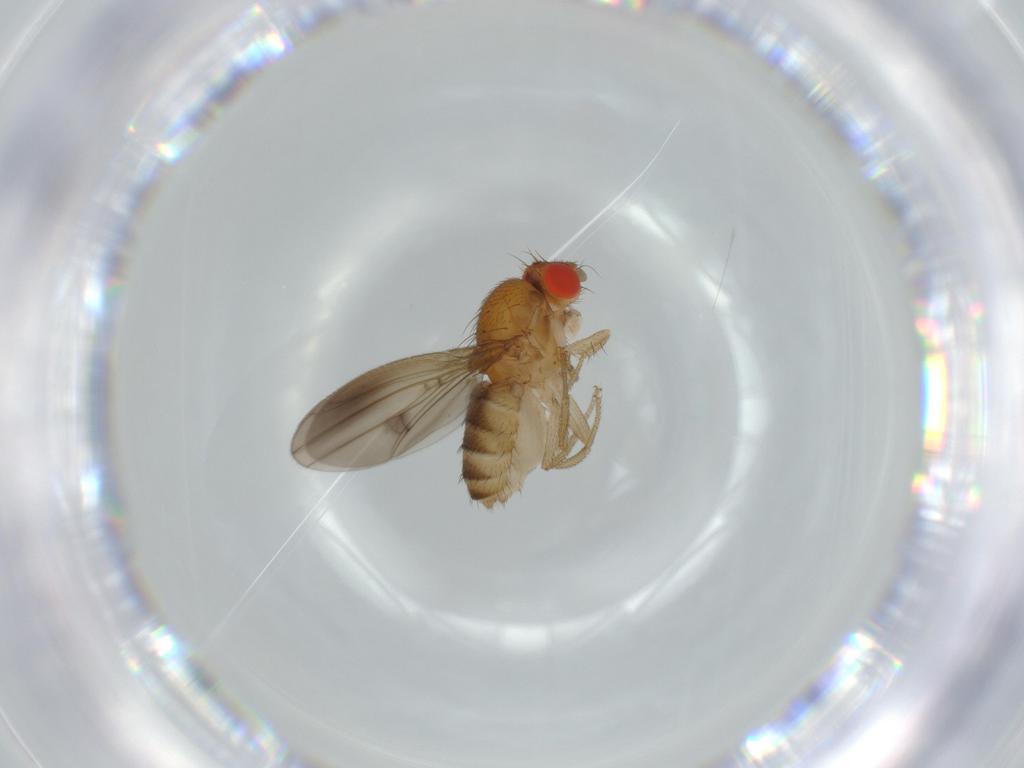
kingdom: Animalia
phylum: Arthropoda
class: Insecta
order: Diptera
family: Drosophilidae
